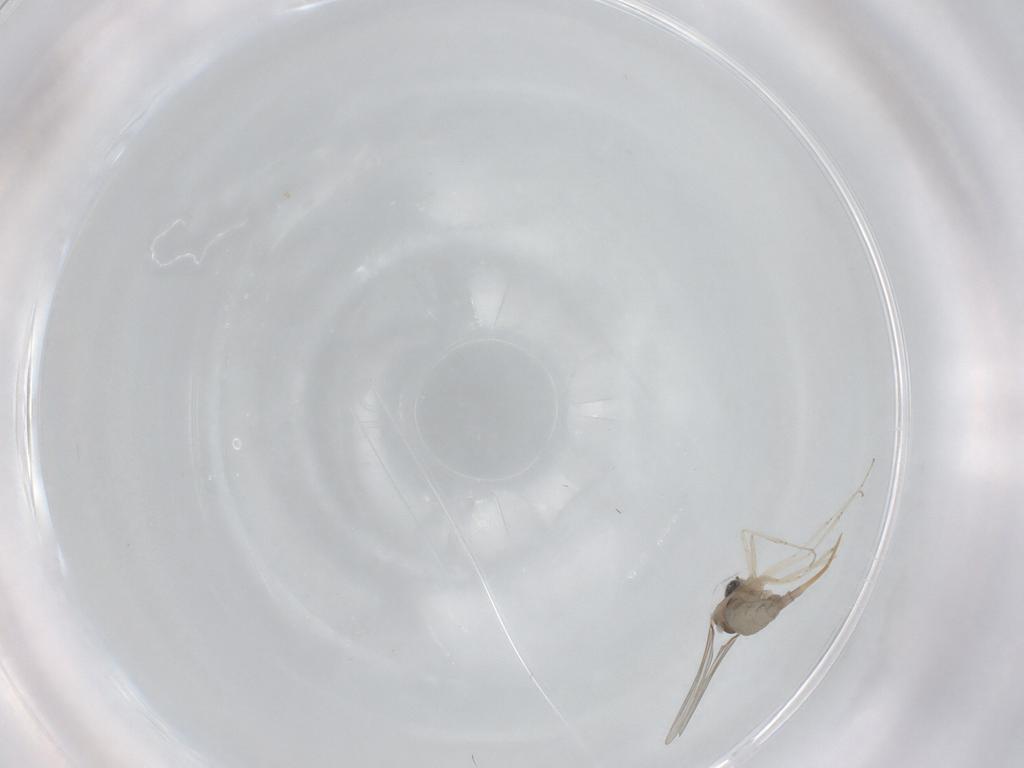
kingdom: Animalia
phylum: Arthropoda
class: Insecta
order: Diptera
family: Cecidomyiidae
